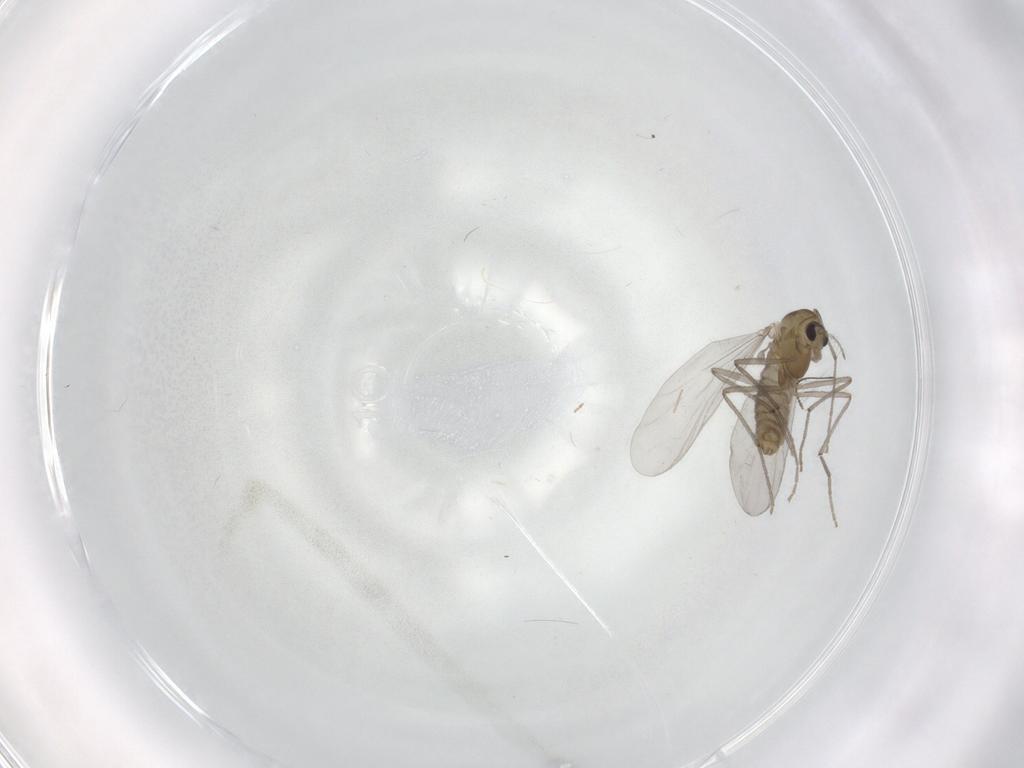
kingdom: Animalia
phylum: Arthropoda
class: Insecta
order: Diptera
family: Chironomidae
